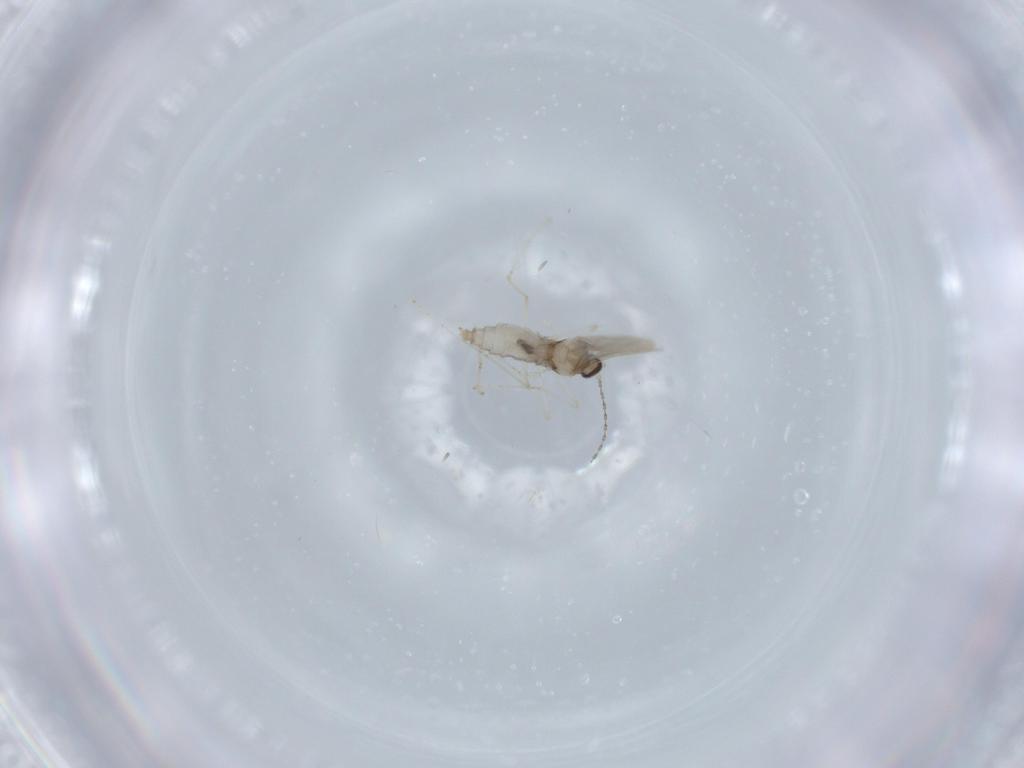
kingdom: Animalia
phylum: Arthropoda
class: Insecta
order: Diptera
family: Cecidomyiidae
